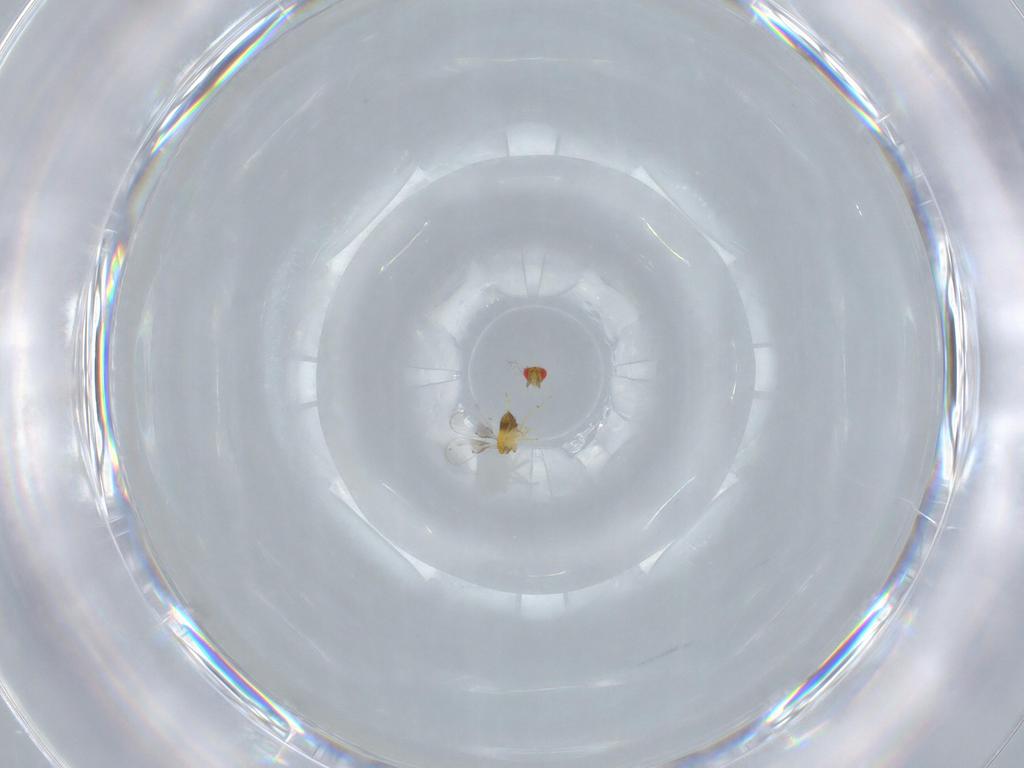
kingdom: Animalia
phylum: Arthropoda
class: Insecta
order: Hymenoptera
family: Trichogrammatidae
